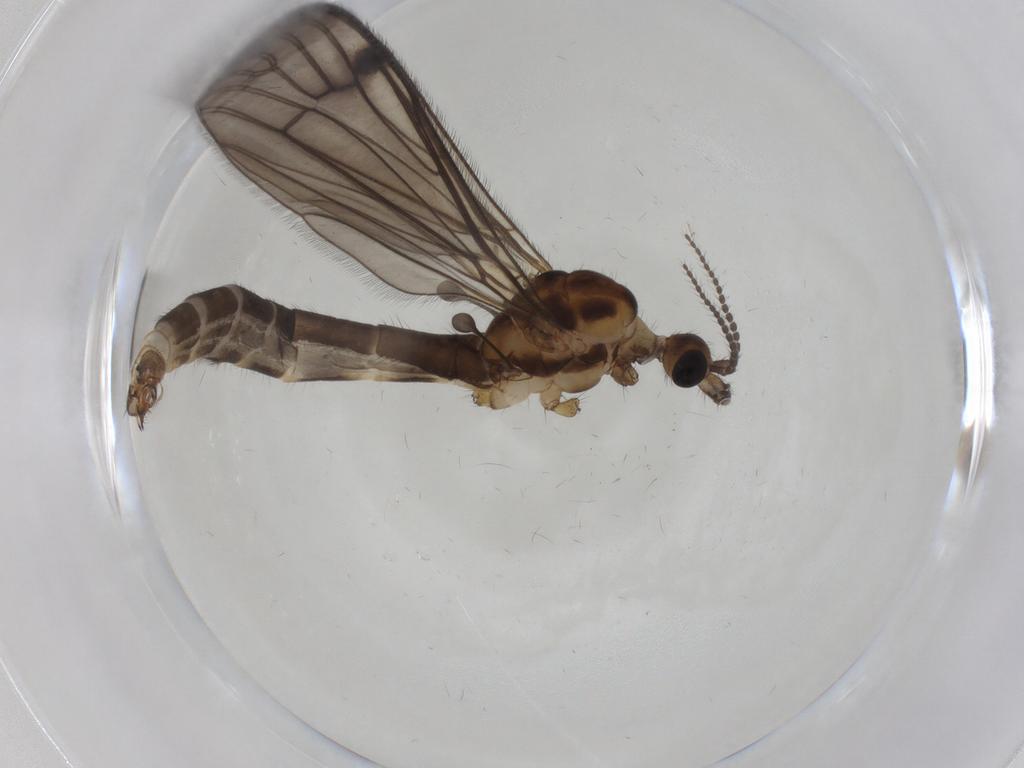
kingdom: Animalia
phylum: Arthropoda
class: Insecta
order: Diptera
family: Limoniidae
